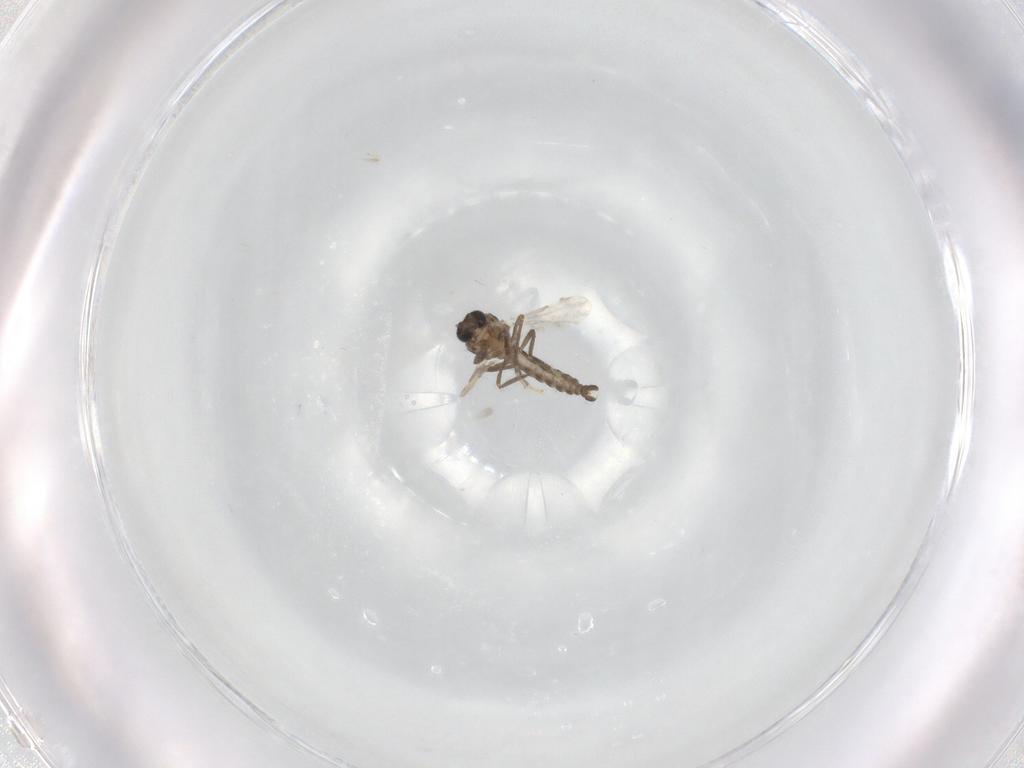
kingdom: Animalia
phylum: Arthropoda
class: Insecta
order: Diptera
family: Ceratopogonidae
